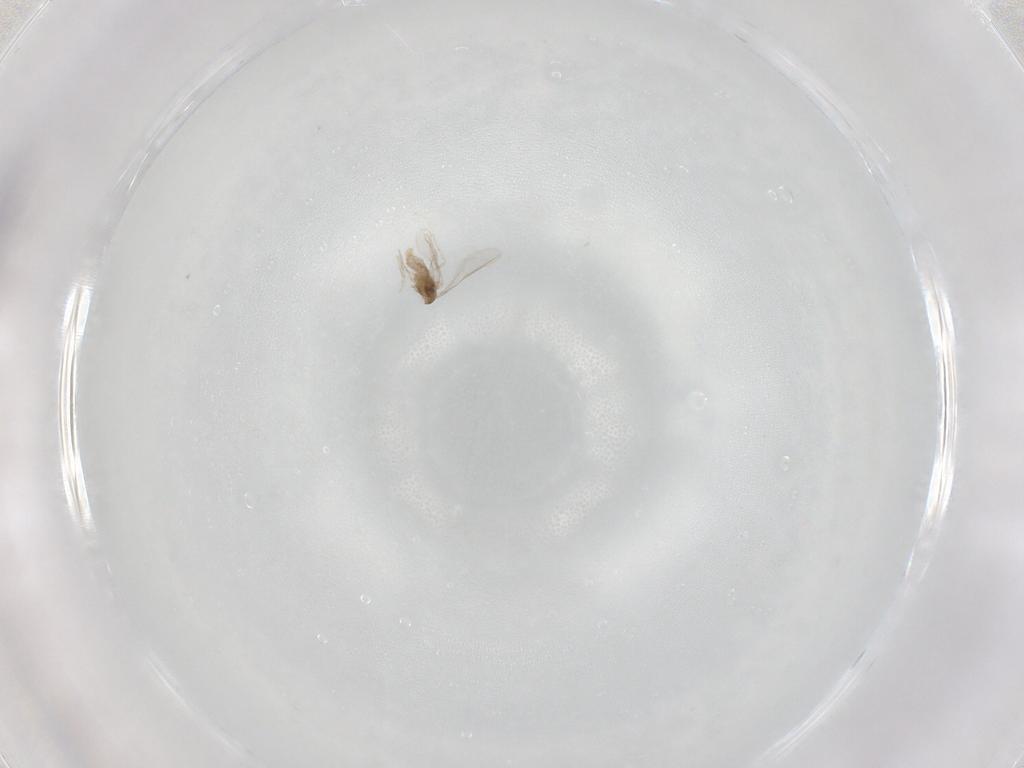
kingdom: Animalia
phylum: Arthropoda
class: Insecta
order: Diptera
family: Cecidomyiidae
